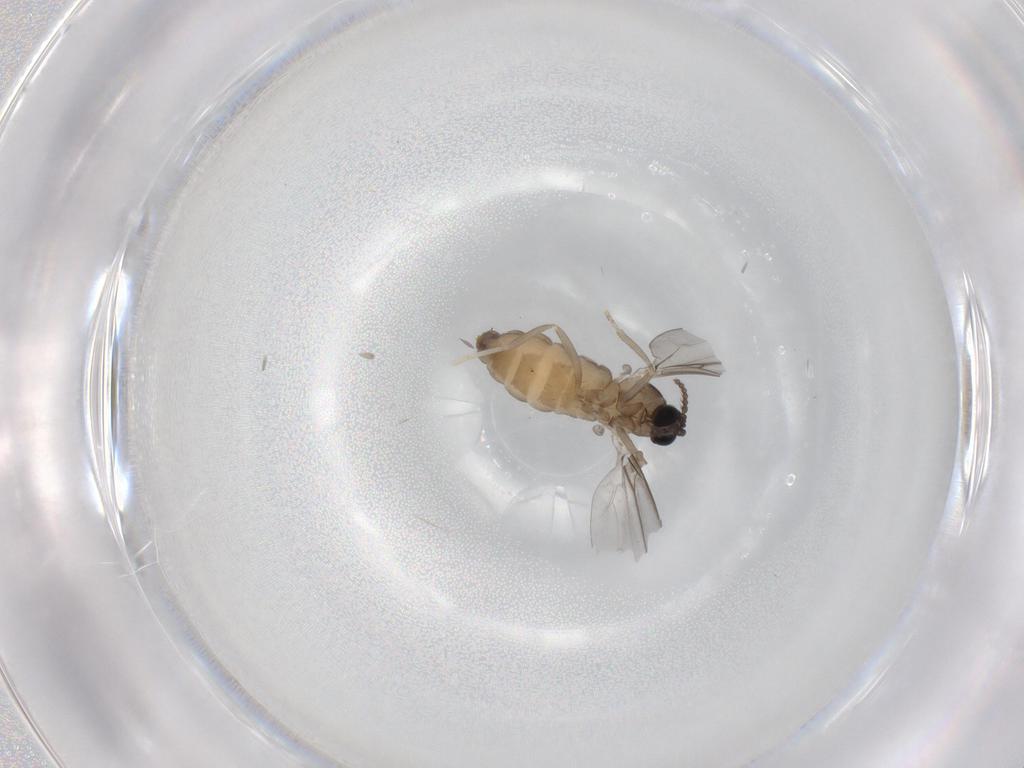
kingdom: Animalia
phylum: Arthropoda
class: Insecta
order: Diptera
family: Cecidomyiidae
